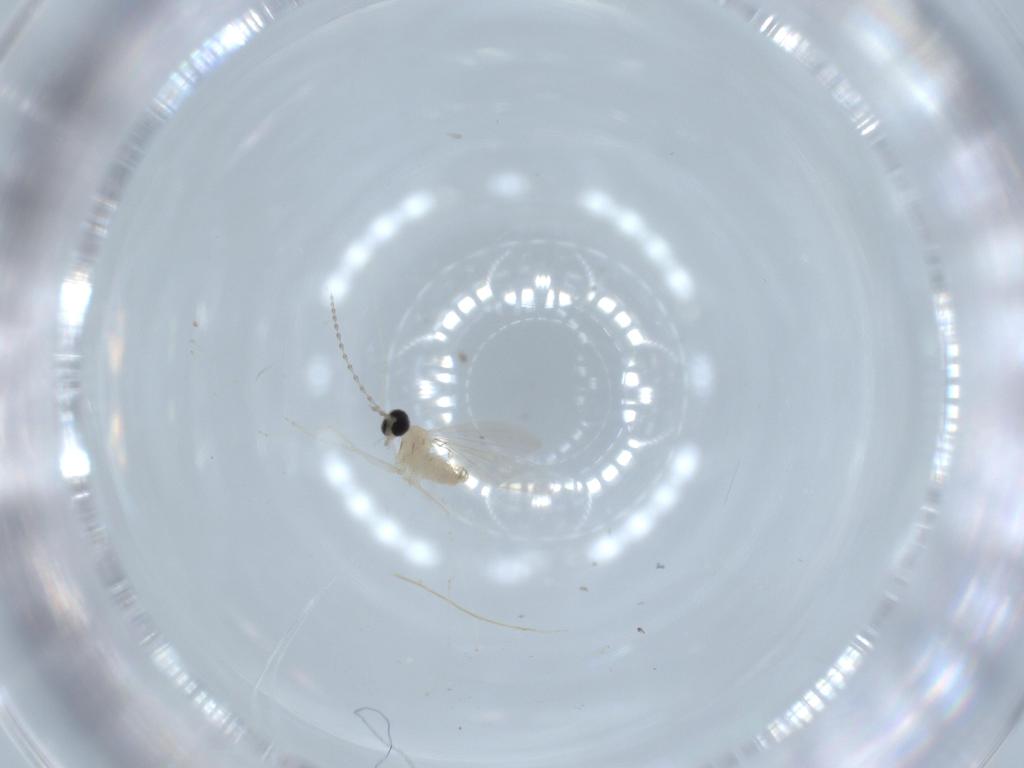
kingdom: Animalia
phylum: Arthropoda
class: Insecta
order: Diptera
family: Cecidomyiidae
